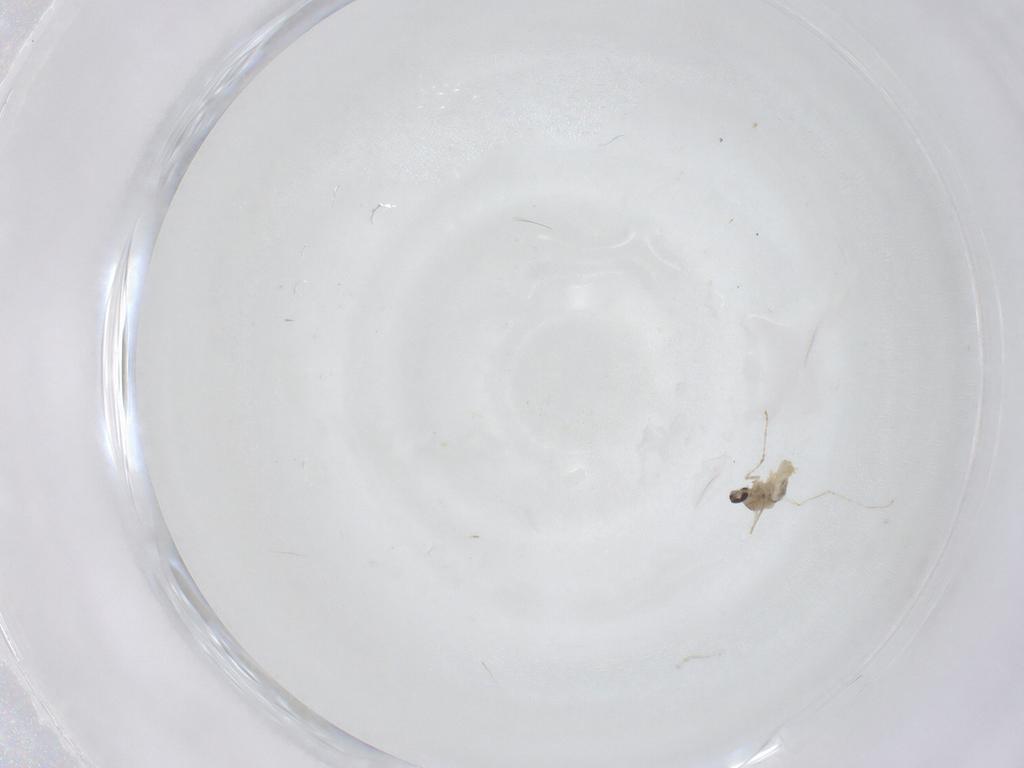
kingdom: Animalia
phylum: Arthropoda
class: Insecta
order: Diptera
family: Cecidomyiidae
